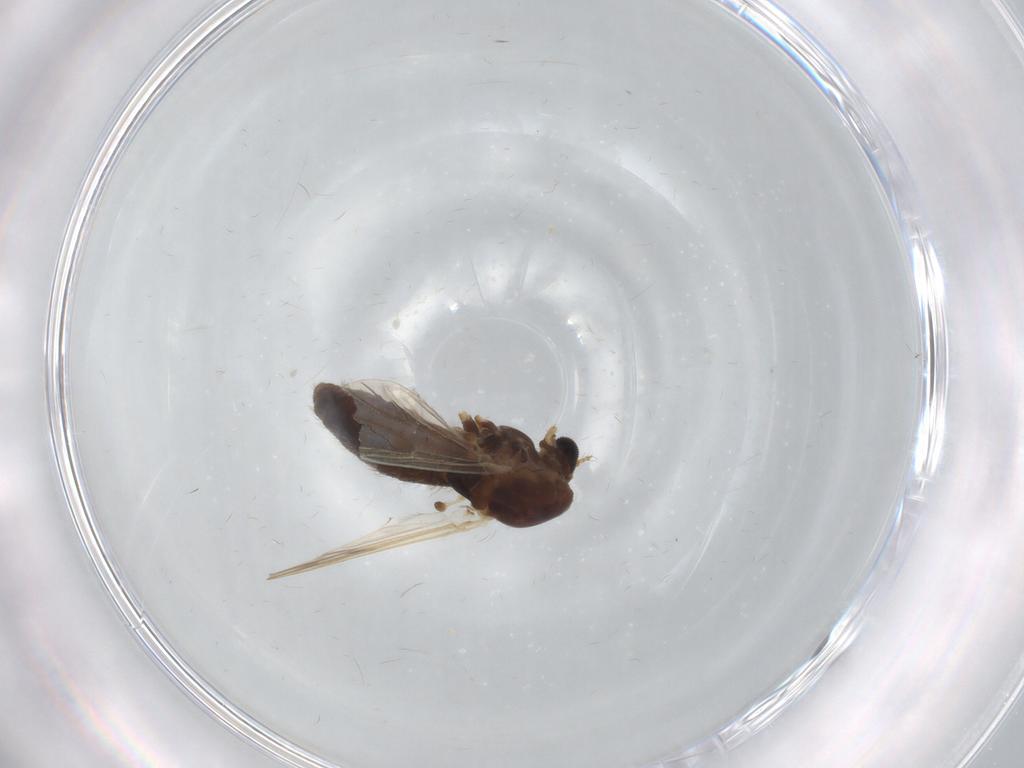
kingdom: Animalia
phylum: Arthropoda
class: Insecta
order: Diptera
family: Chironomidae
